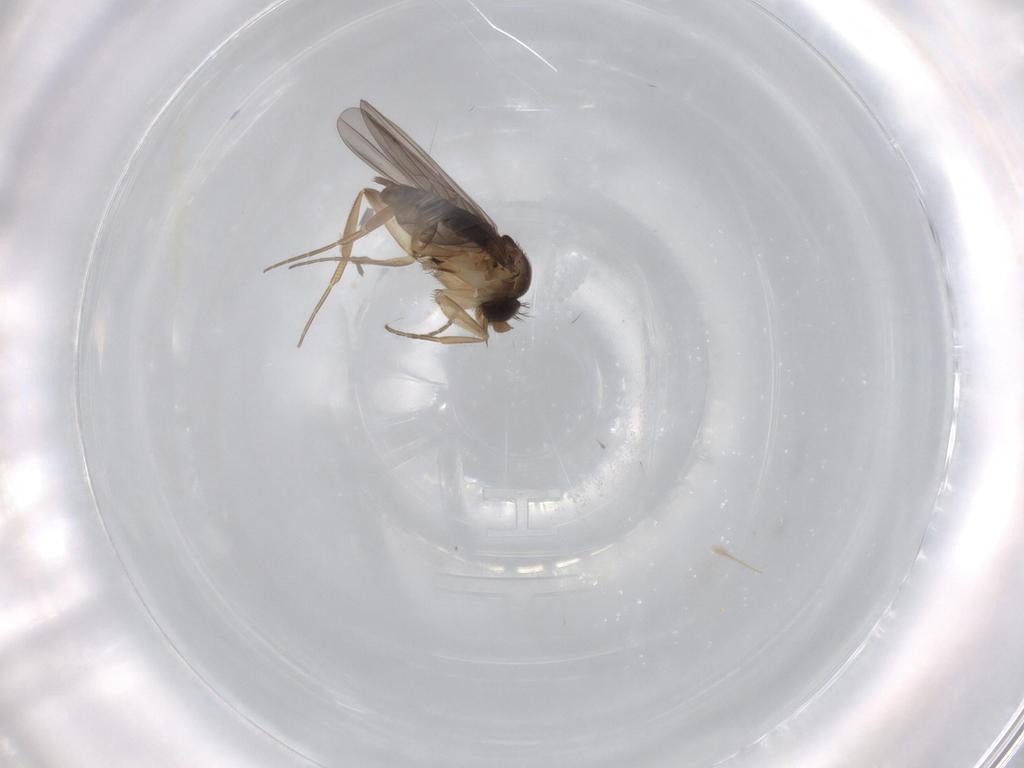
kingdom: Animalia
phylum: Arthropoda
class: Insecta
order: Diptera
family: Phoridae
